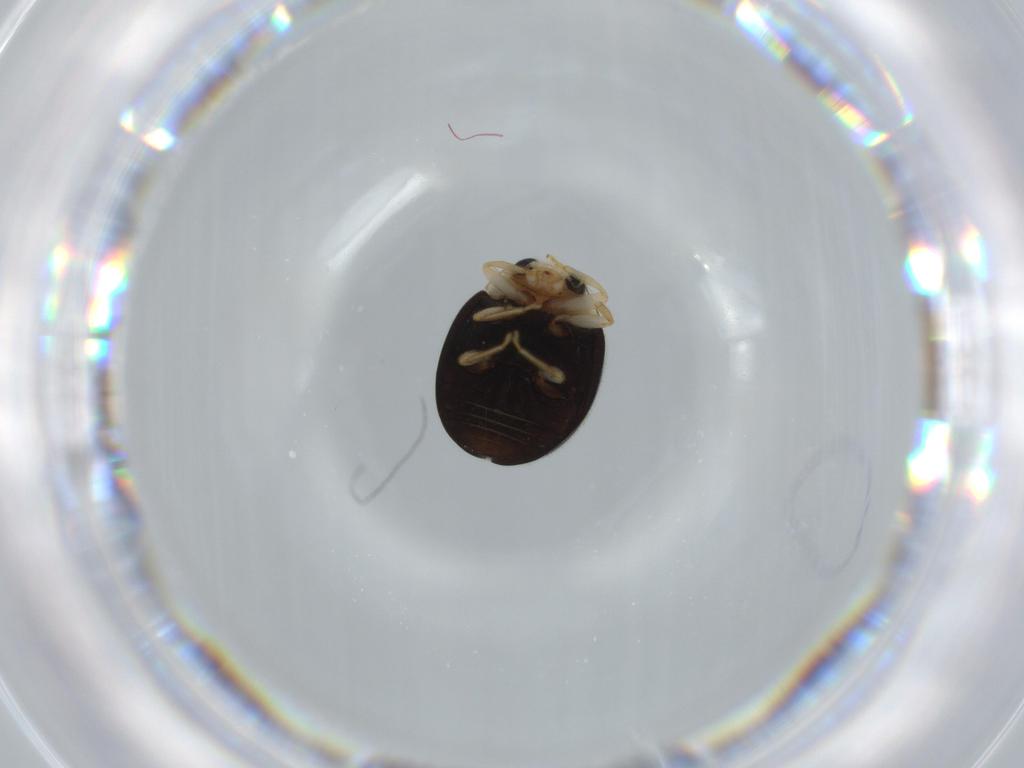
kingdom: Animalia
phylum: Arthropoda
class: Insecta
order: Coleoptera
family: Coccinellidae
